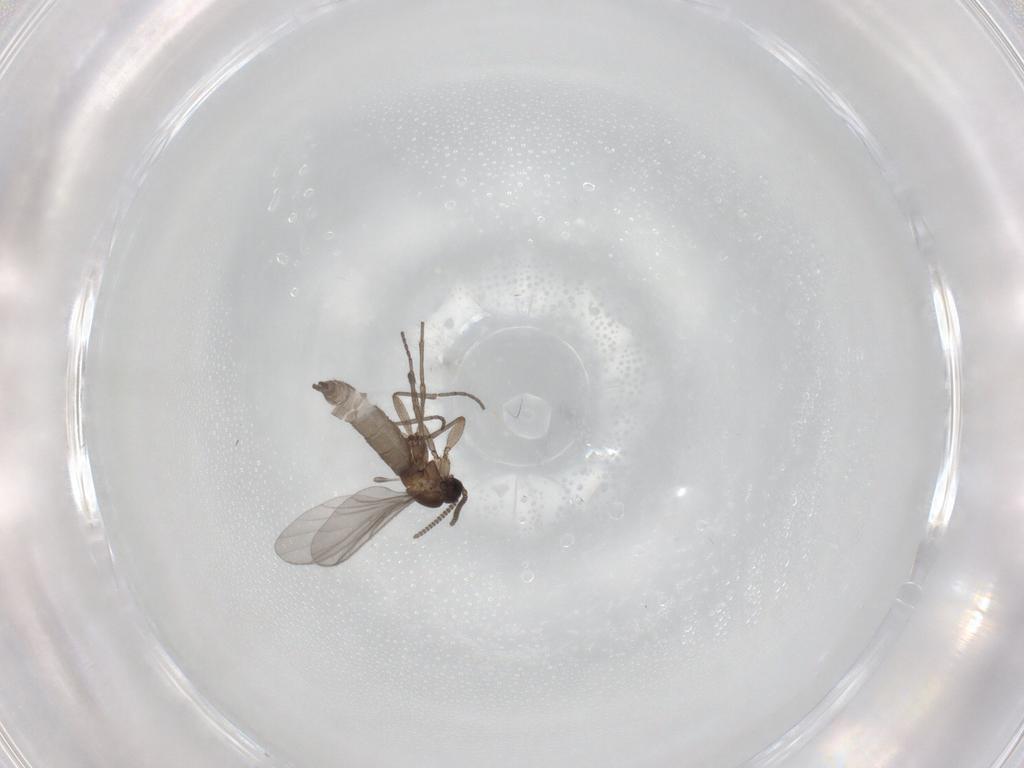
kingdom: Animalia
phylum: Arthropoda
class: Insecta
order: Diptera
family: Sciaridae
